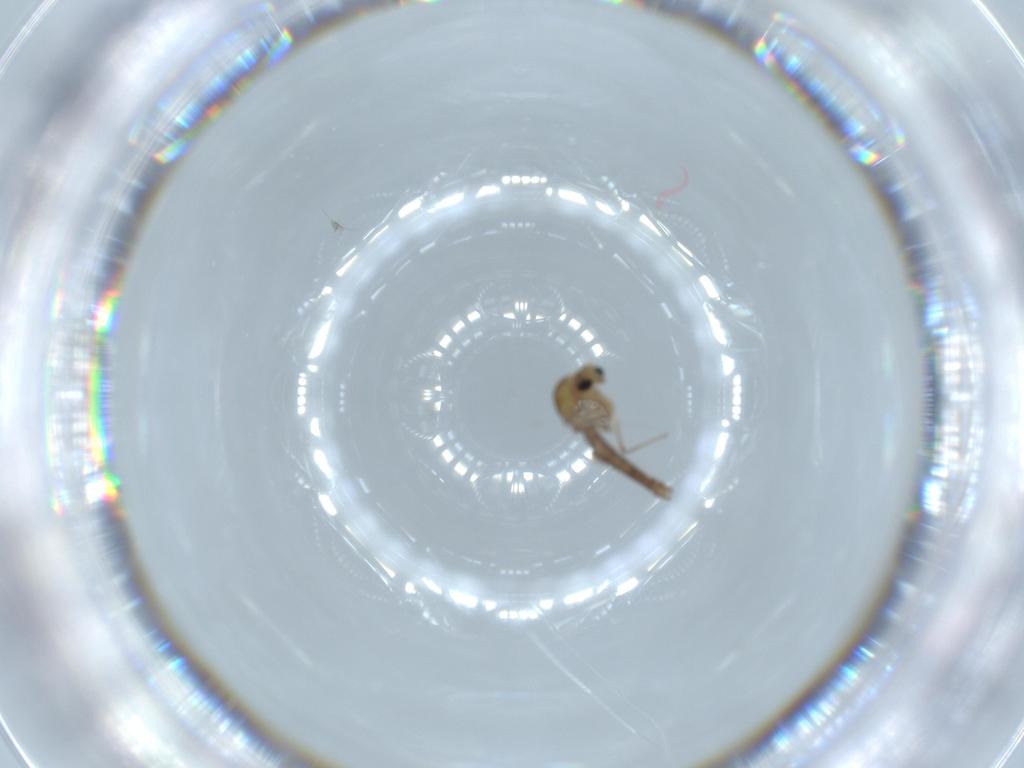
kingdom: Animalia
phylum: Arthropoda
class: Insecta
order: Diptera
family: Chironomidae
